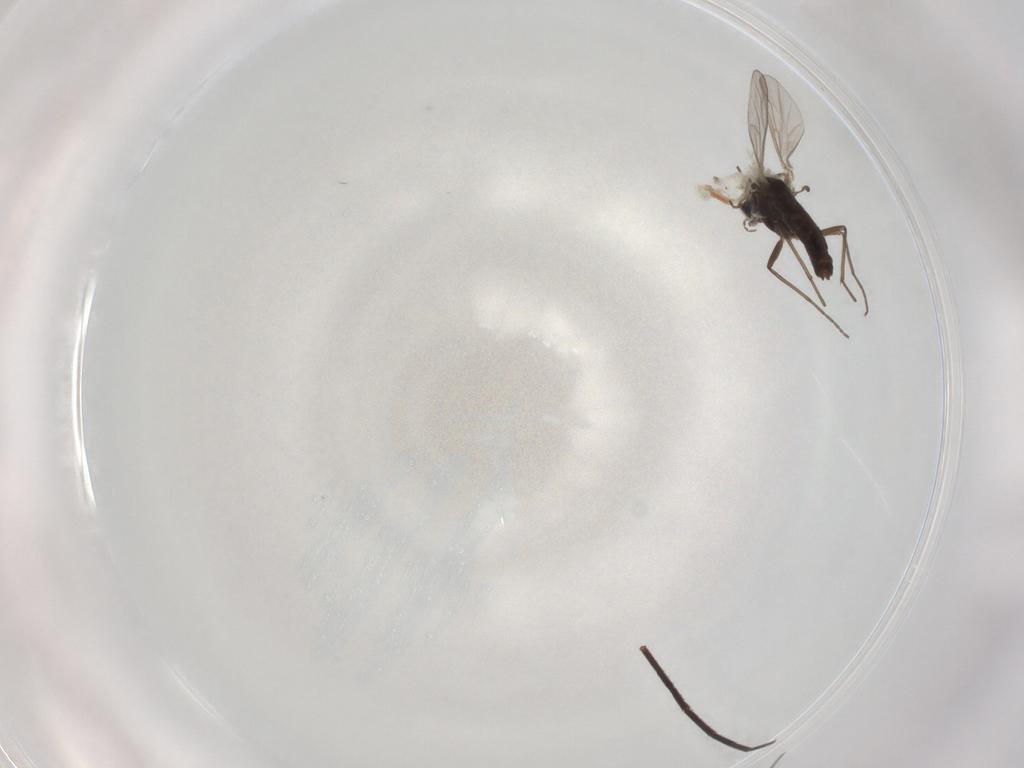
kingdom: Animalia
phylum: Arthropoda
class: Insecta
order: Diptera
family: Chironomidae
